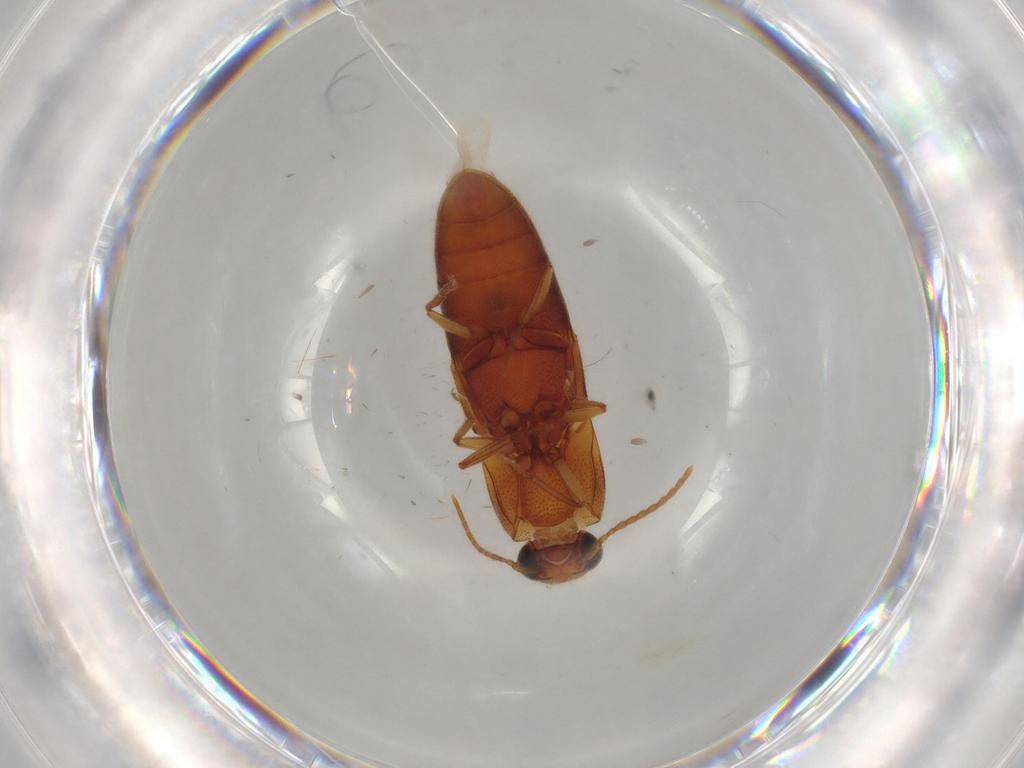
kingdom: Animalia
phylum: Arthropoda
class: Insecta
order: Coleoptera
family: Elateridae
